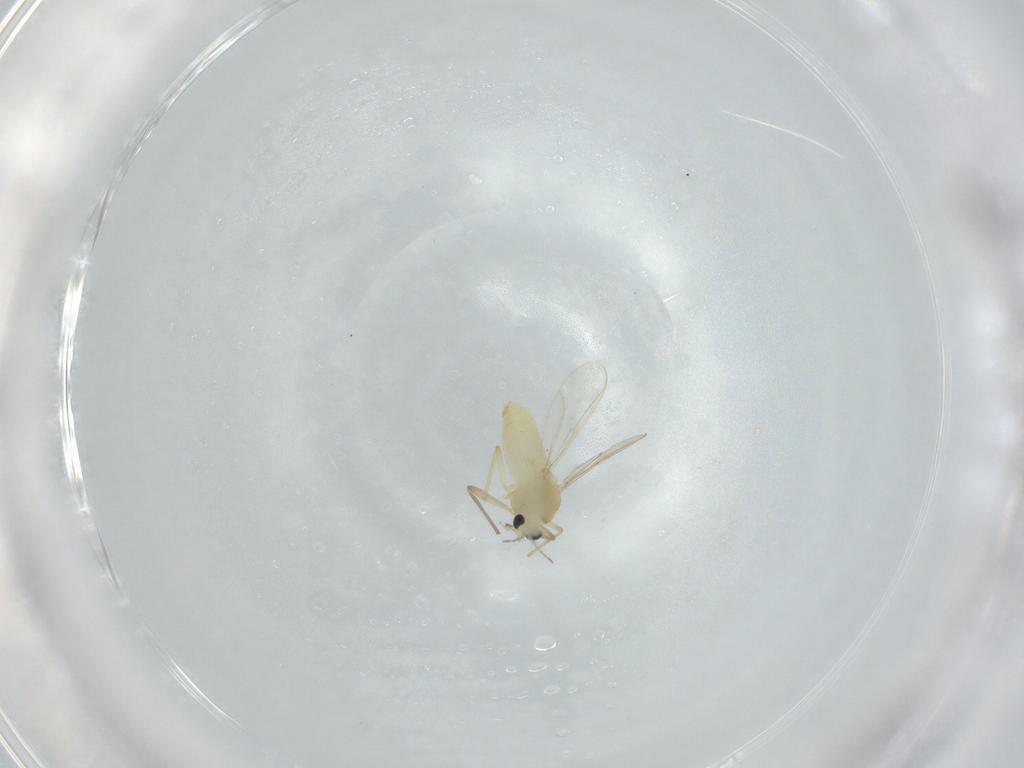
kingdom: Animalia
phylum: Arthropoda
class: Insecta
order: Diptera
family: Chironomidae
